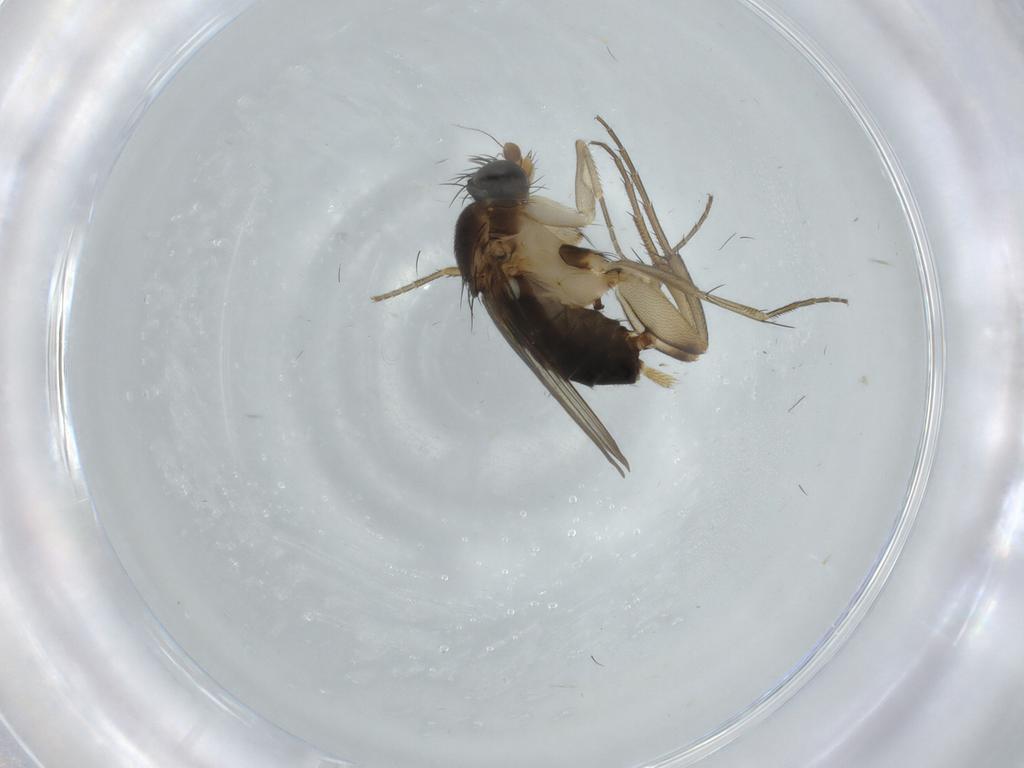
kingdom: Animalia
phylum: Arthropoda
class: Insecta
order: Diptera
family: Phoridae
